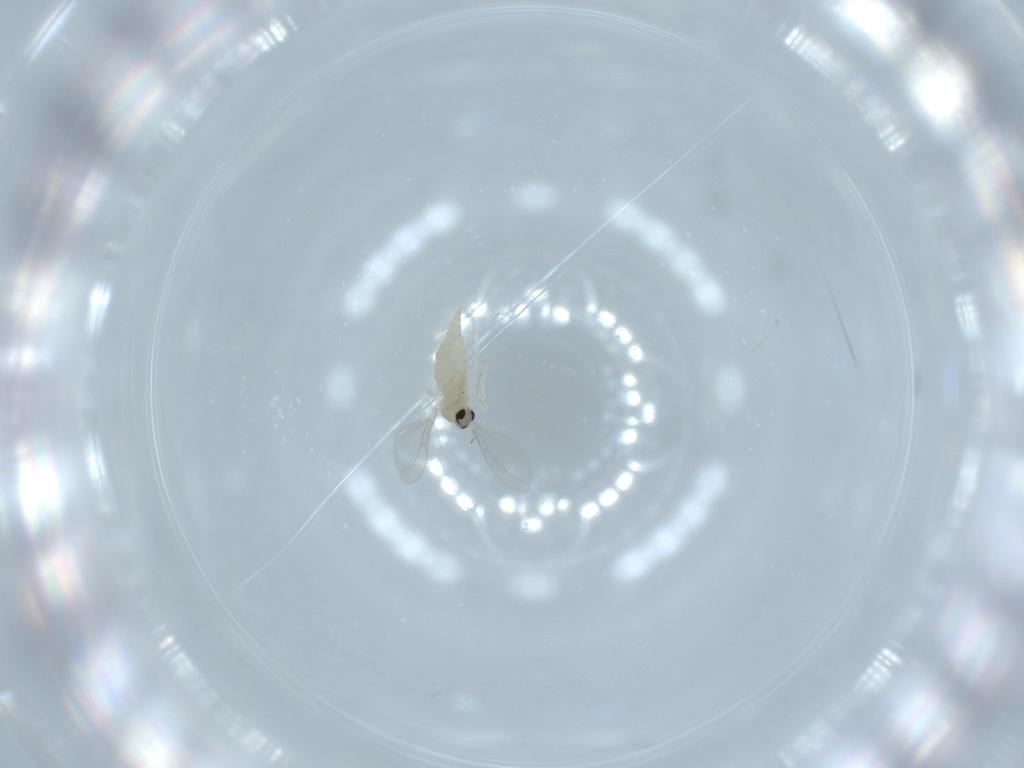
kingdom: Animalia
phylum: Arthropoda
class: Insecta
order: Diptera
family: Cecidomyiidae
